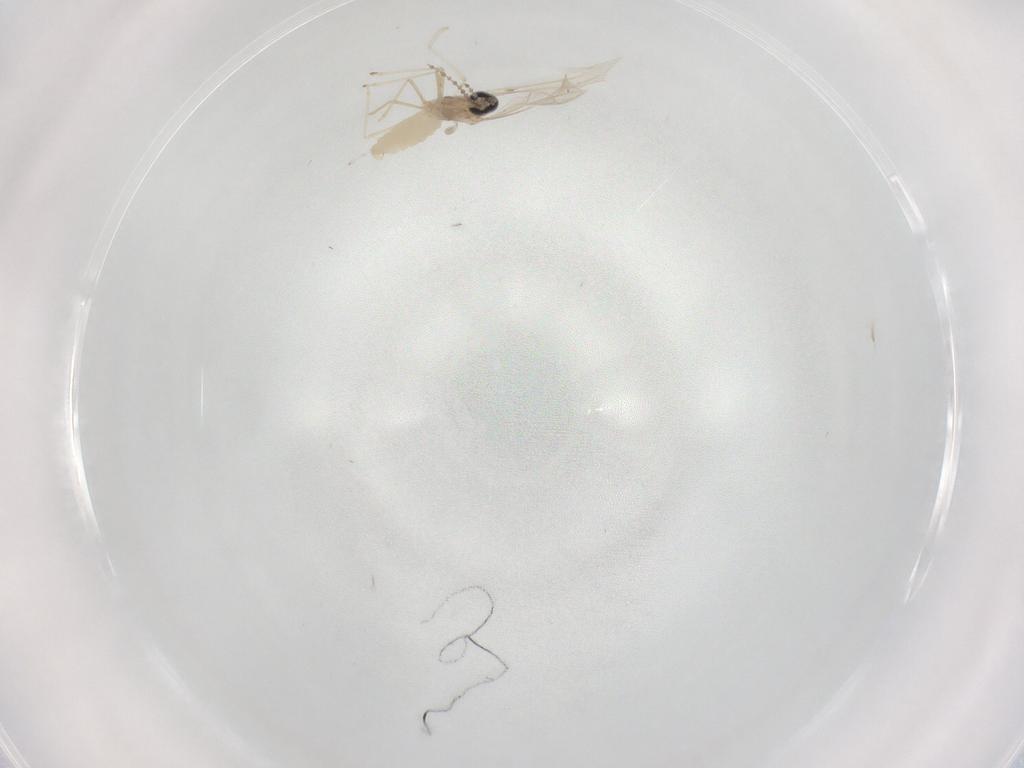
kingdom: Animalia
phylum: Arthropoda
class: Insecta
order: Diptera
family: Cecidomyiidae
